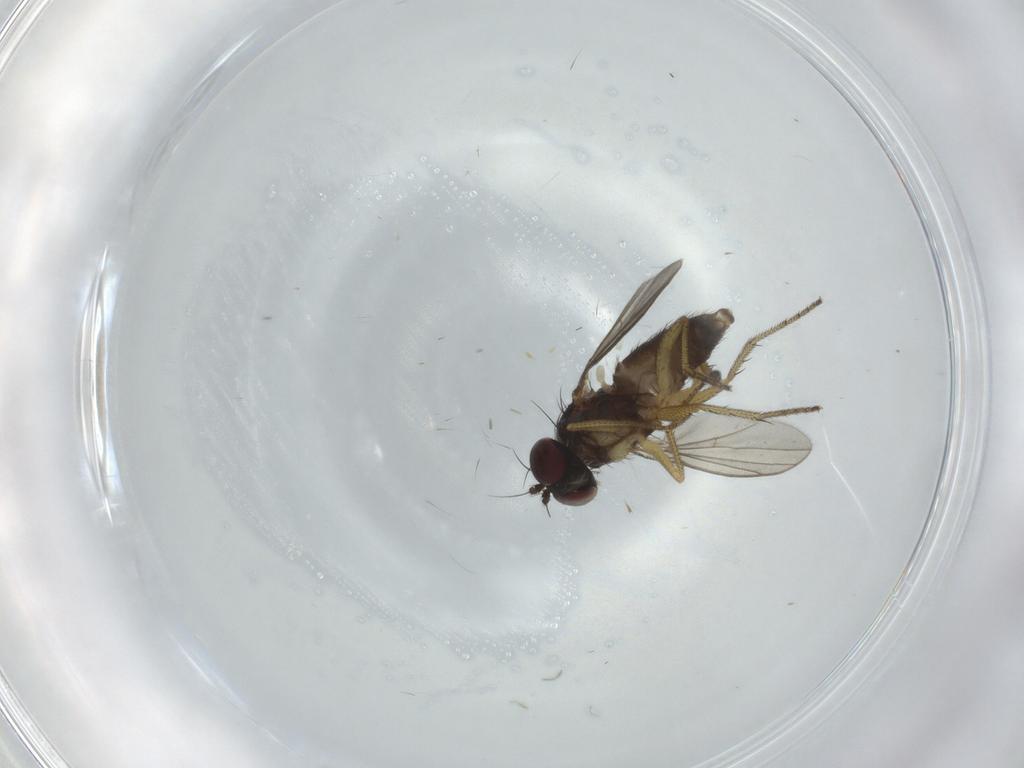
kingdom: Animalia
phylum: Arthropoda
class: Insecta
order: Diptera
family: Dolichopodidae
